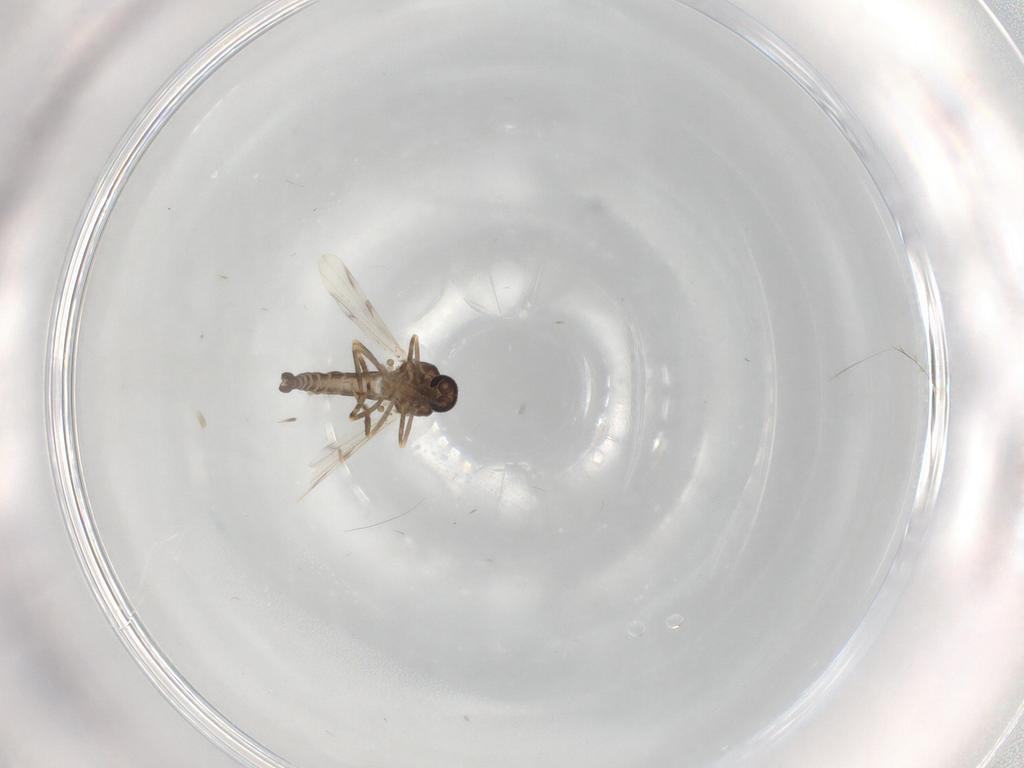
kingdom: Animalia
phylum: Arthropoda
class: Insecta
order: Diptera
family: Ceratopogonidae
